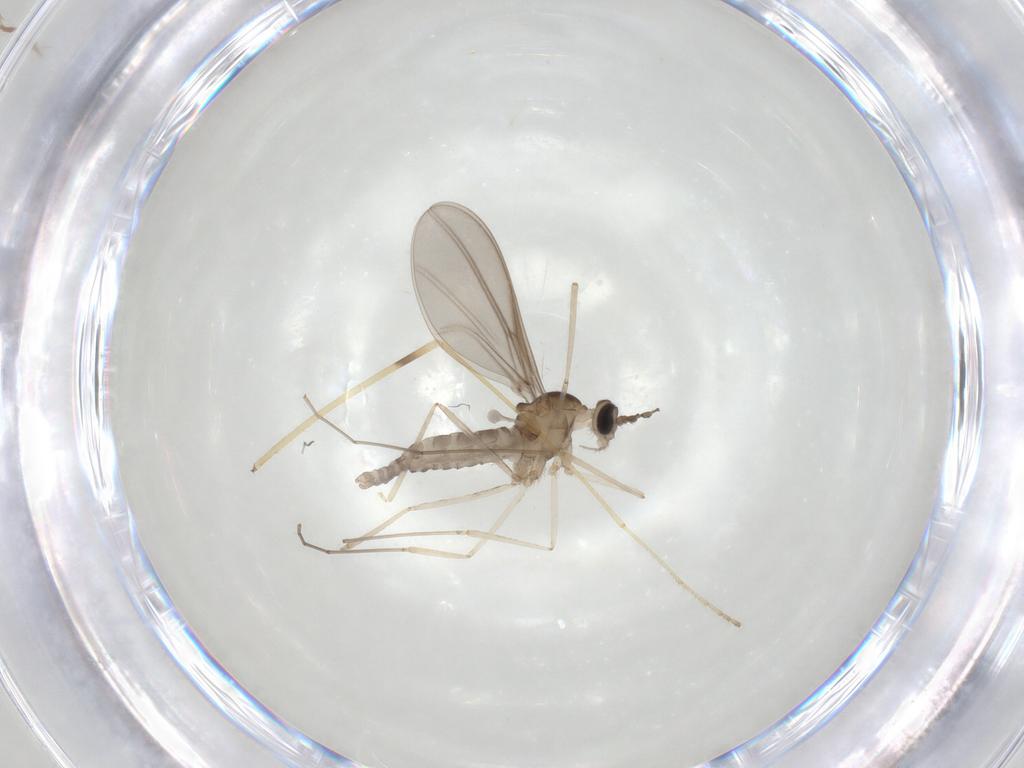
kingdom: Animalia
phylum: Arthropoda
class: Insecta
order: Diptera
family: Limoniidae
